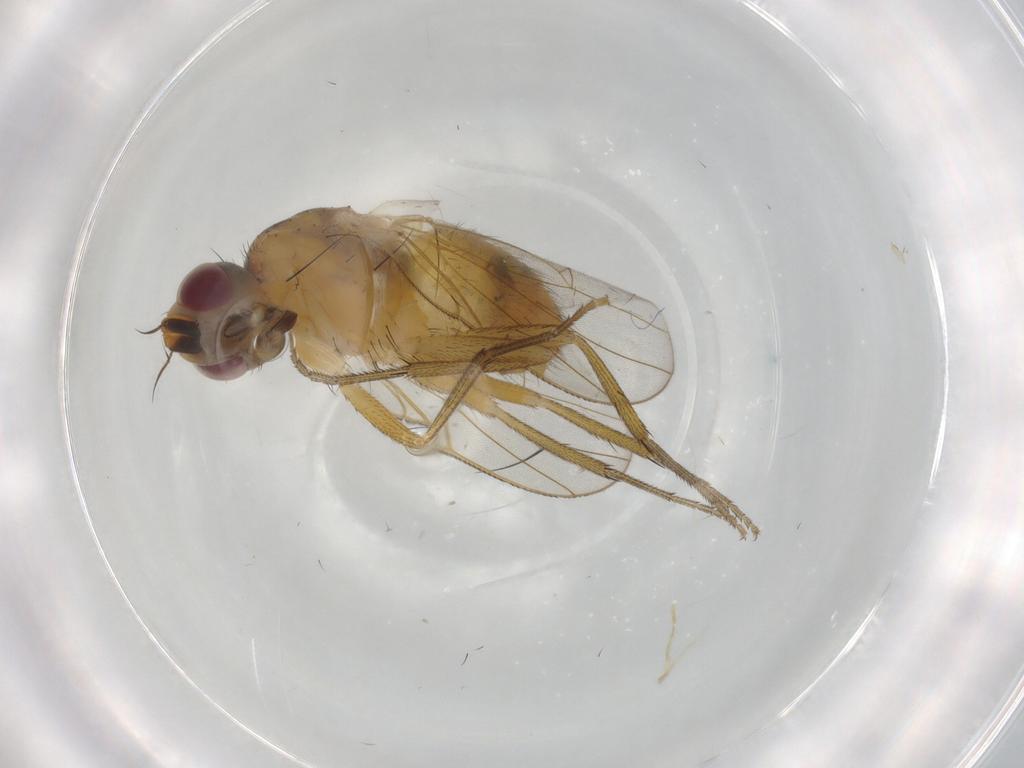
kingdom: Animalia
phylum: Arthropoda
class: Insecta
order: Diptera
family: Muscidae
